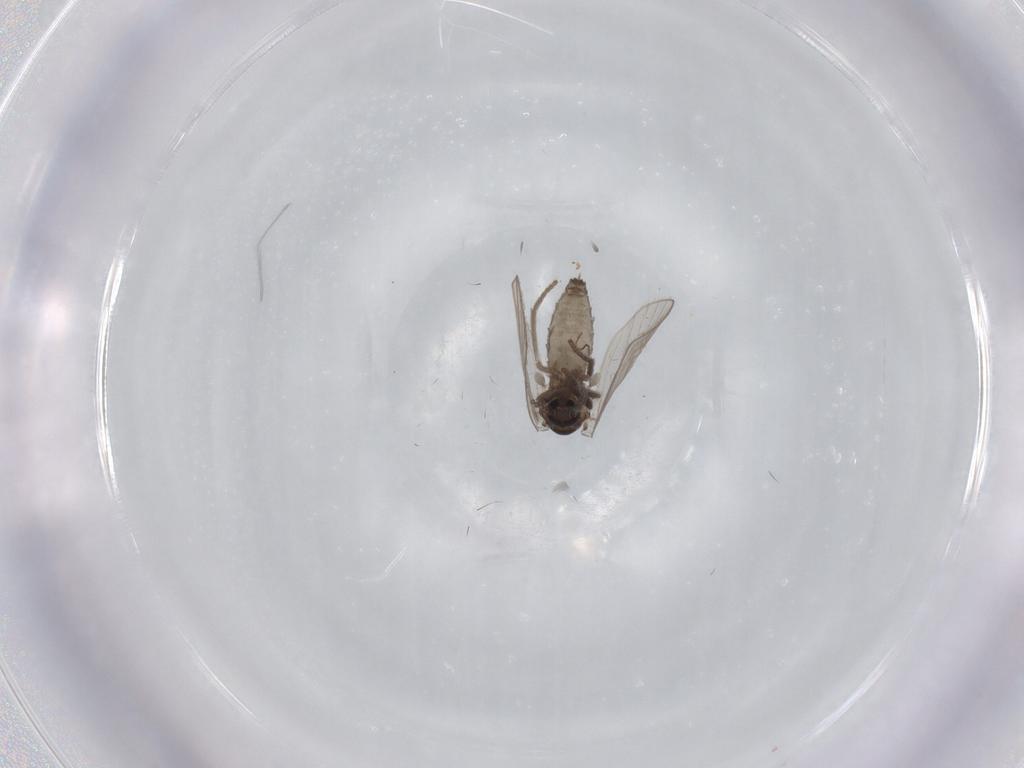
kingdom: Animalia
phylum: Arthropoda
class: Insecta
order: Diptera
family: Psychodidae
